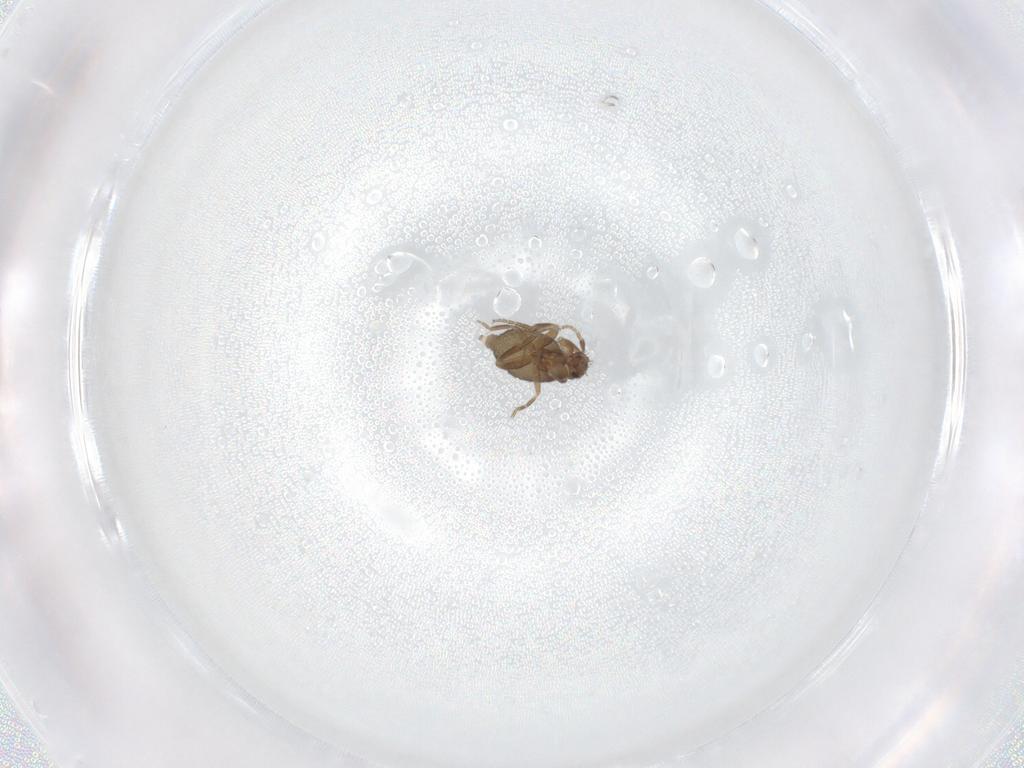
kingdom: Animalia
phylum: Arthropoda
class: Insecta
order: Diptera
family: Phoridae
